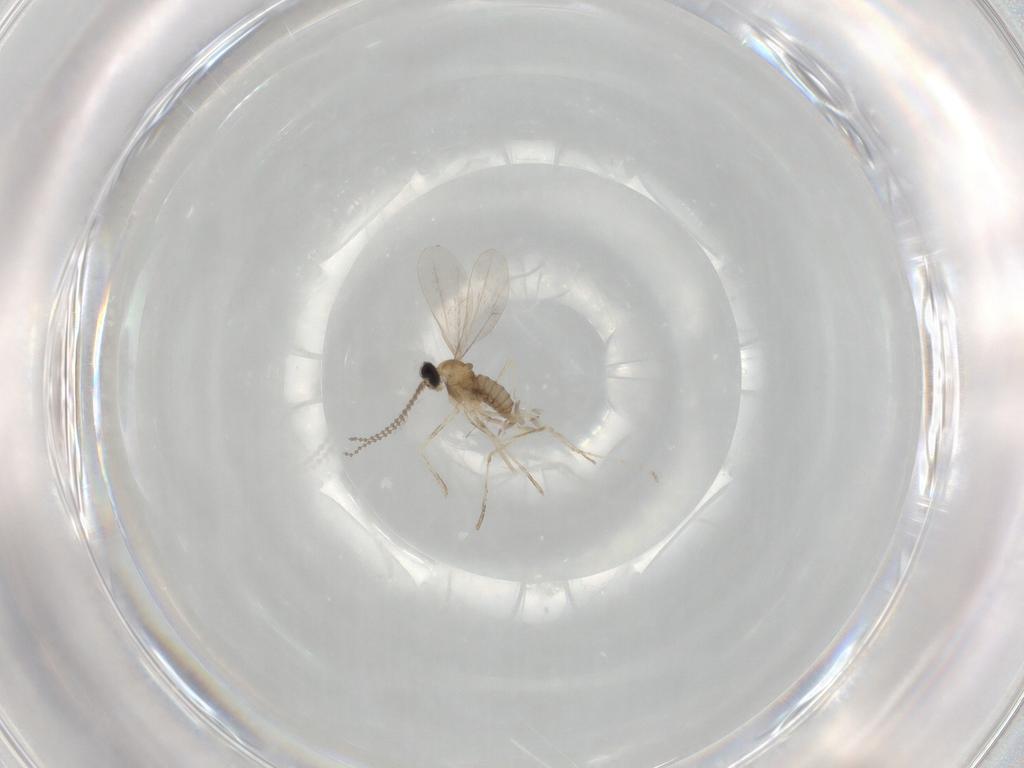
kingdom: Animalia
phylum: Arthropoda
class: Insecta
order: Diptera
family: Cecidomyiidae
